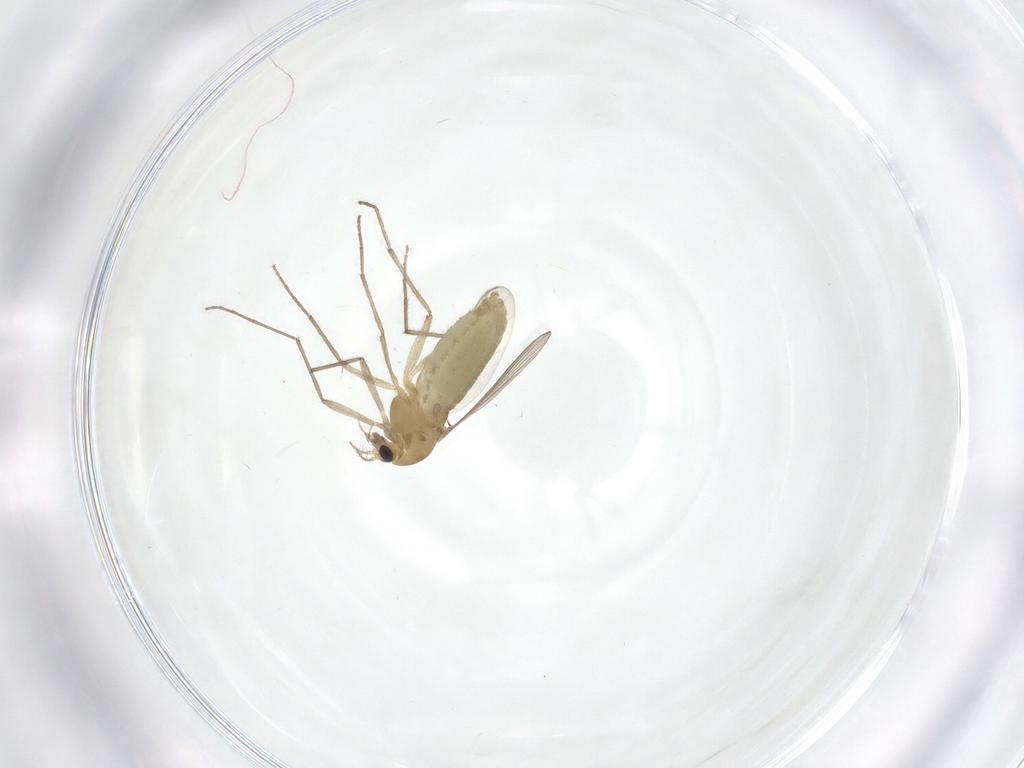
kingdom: Animalia
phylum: Arthropoda
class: Insecta
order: Diptera
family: Chironomidae
